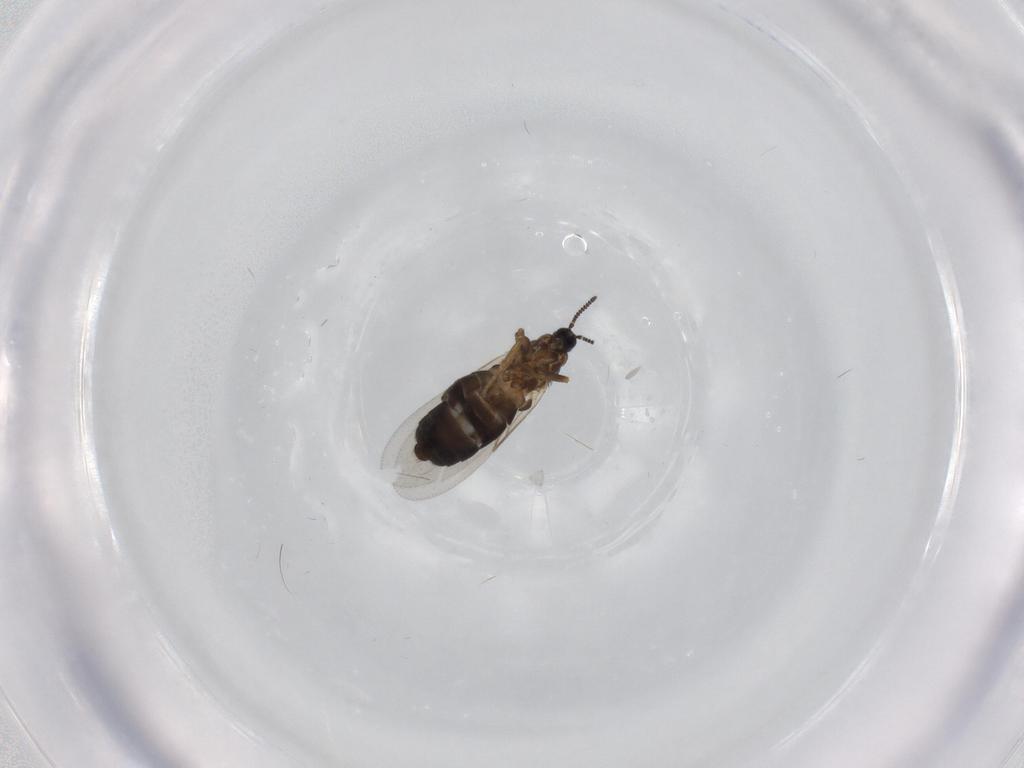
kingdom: Animalia
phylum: Arthropoda
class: Insecta
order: Diptera
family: Scatopsidae
